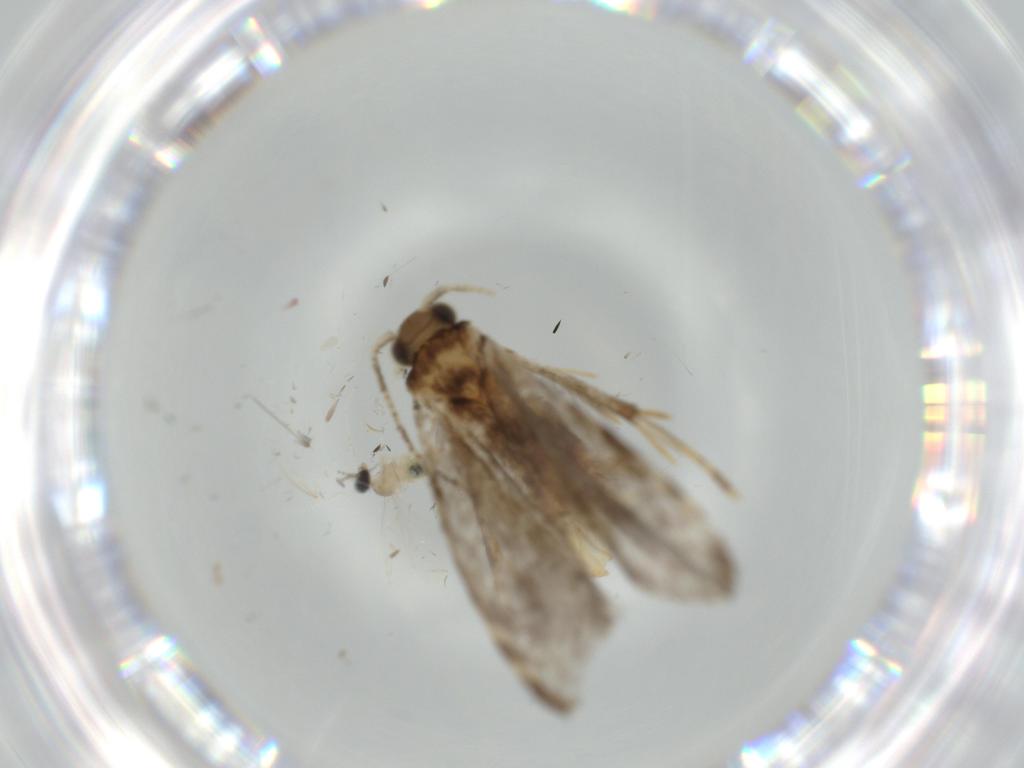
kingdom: Animalia
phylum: Arthropoda
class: Insecta
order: Lepidoptera
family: Tineidae
